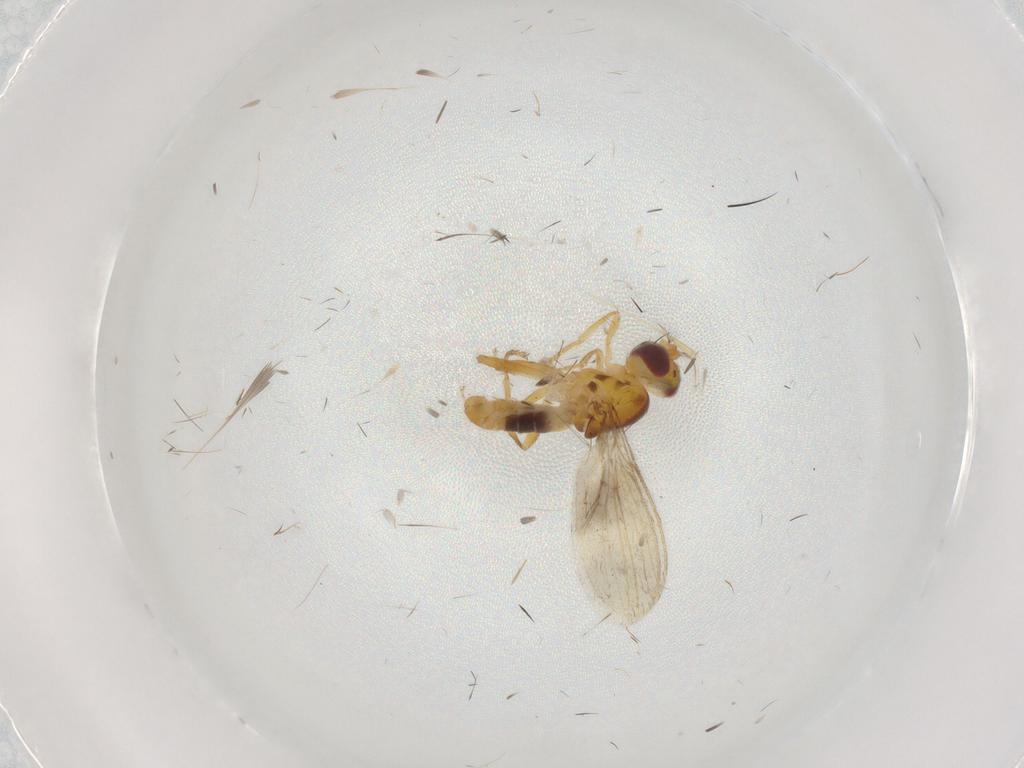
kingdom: Animalia
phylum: Arthropoda
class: Insecta
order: Diptera
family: Periscelididae
